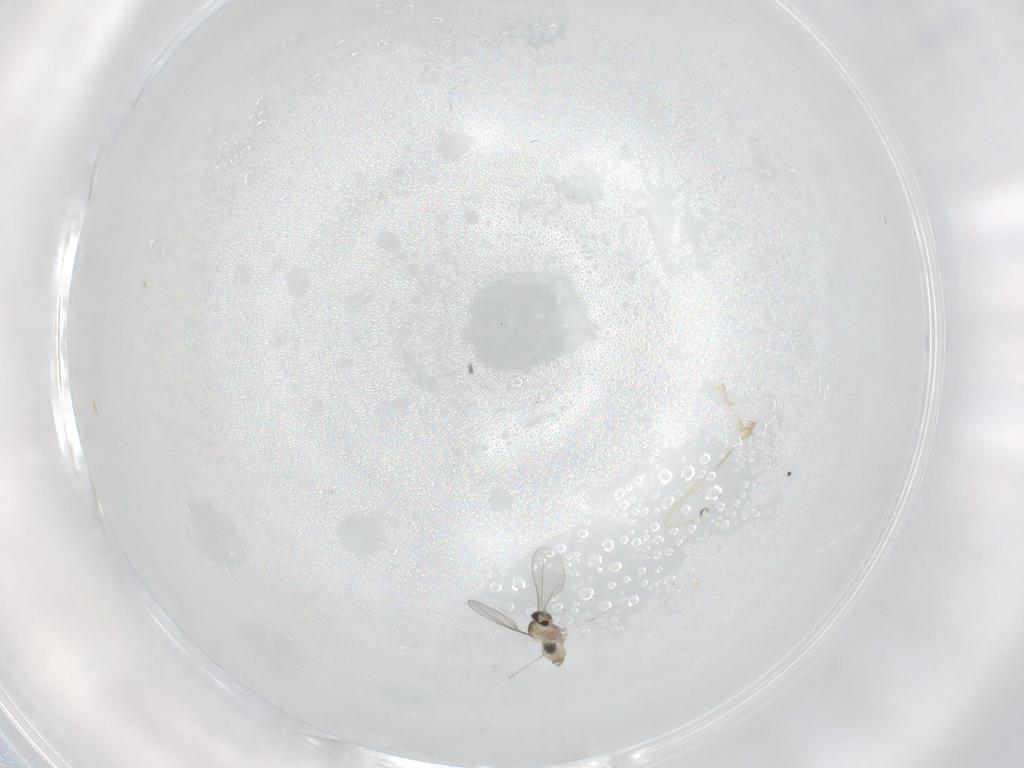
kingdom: Animalia
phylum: Arthropoda
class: Insecta
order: Diptera
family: Cecidomyiidae
